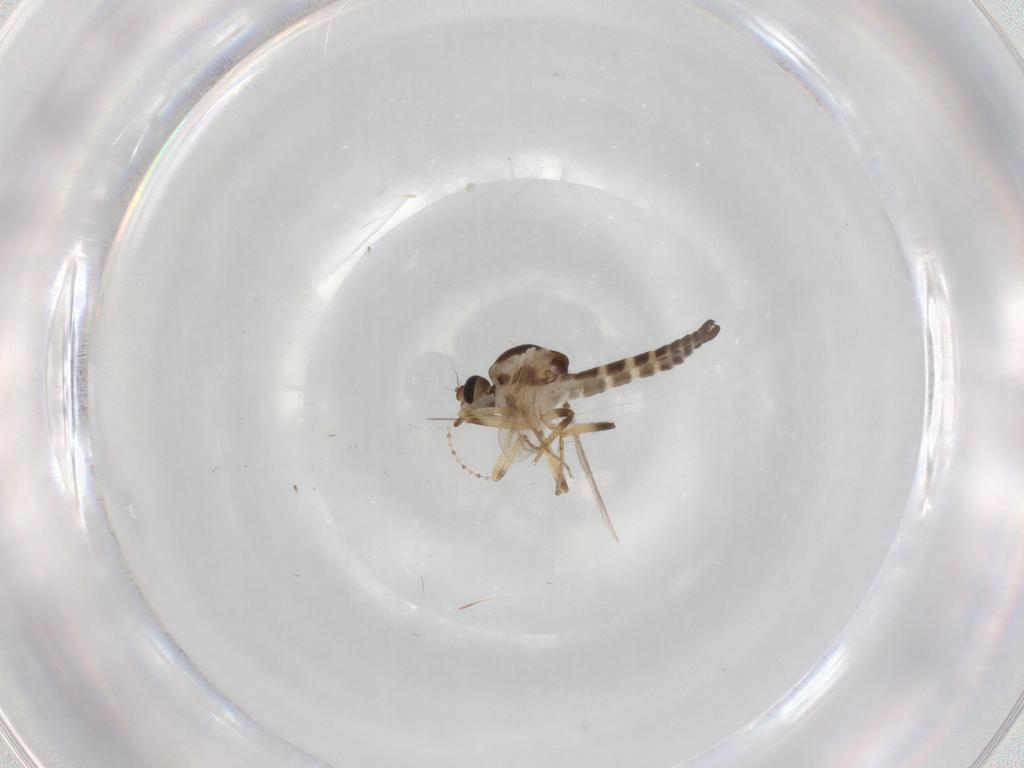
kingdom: Animalia
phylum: Arthropoda
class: Insecta
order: Diptera
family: Ceratopogonidae
